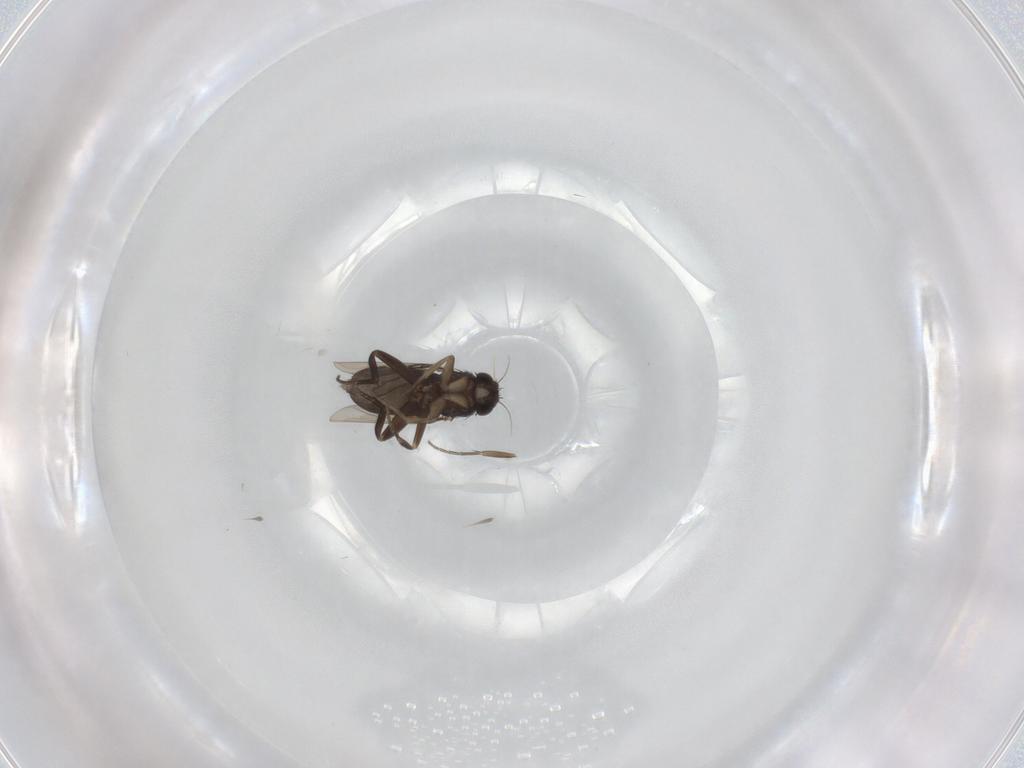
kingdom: Animalia
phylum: Arthropoda
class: Insecta
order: Diptera
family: Phoridae
